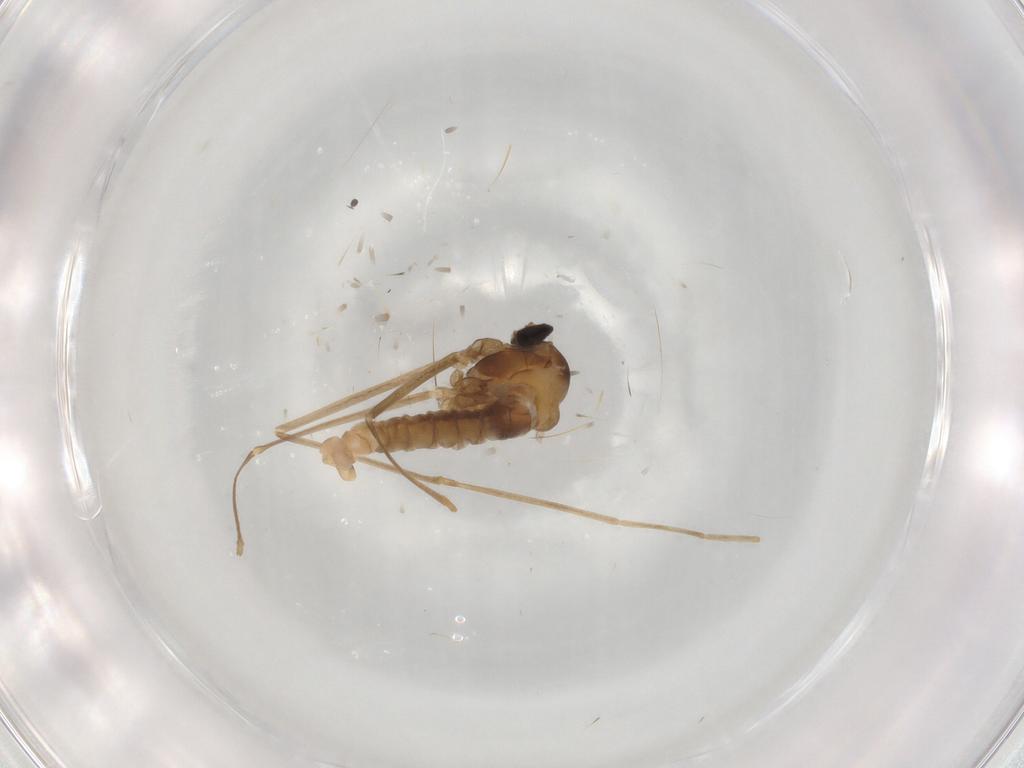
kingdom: Animalia
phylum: Arthropoda
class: Insecta
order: Diptera
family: Cecidomyiidae
